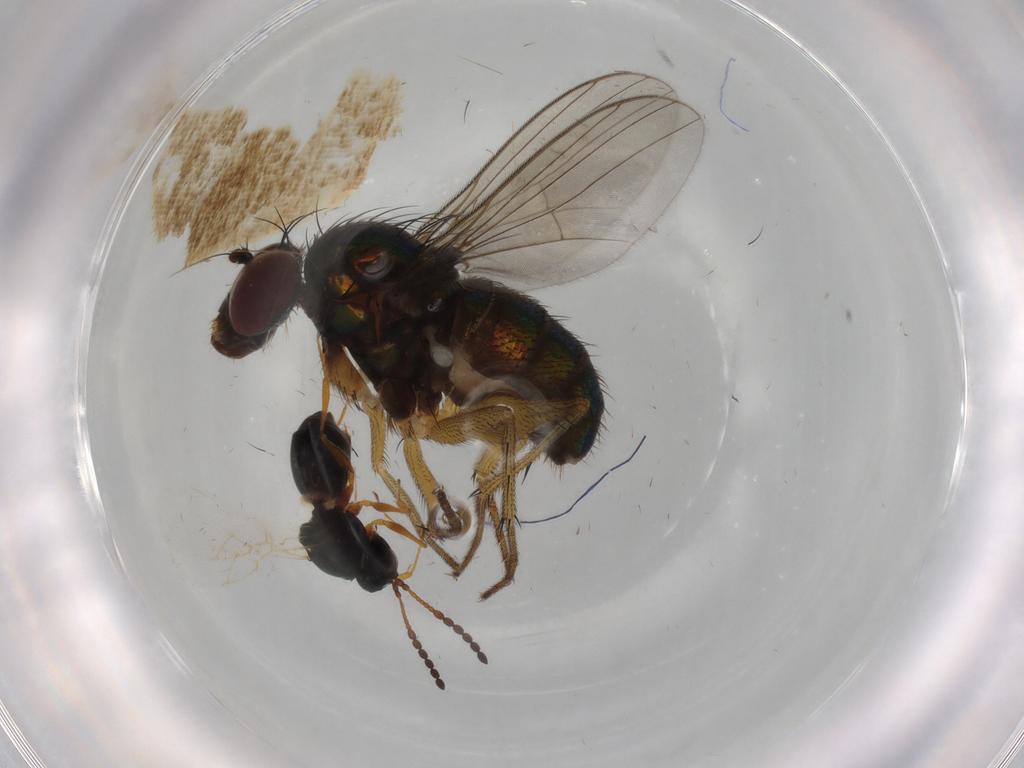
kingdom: Animalia
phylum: Arthropoda
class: Insecta
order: Diptera
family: Dolichopodidae
